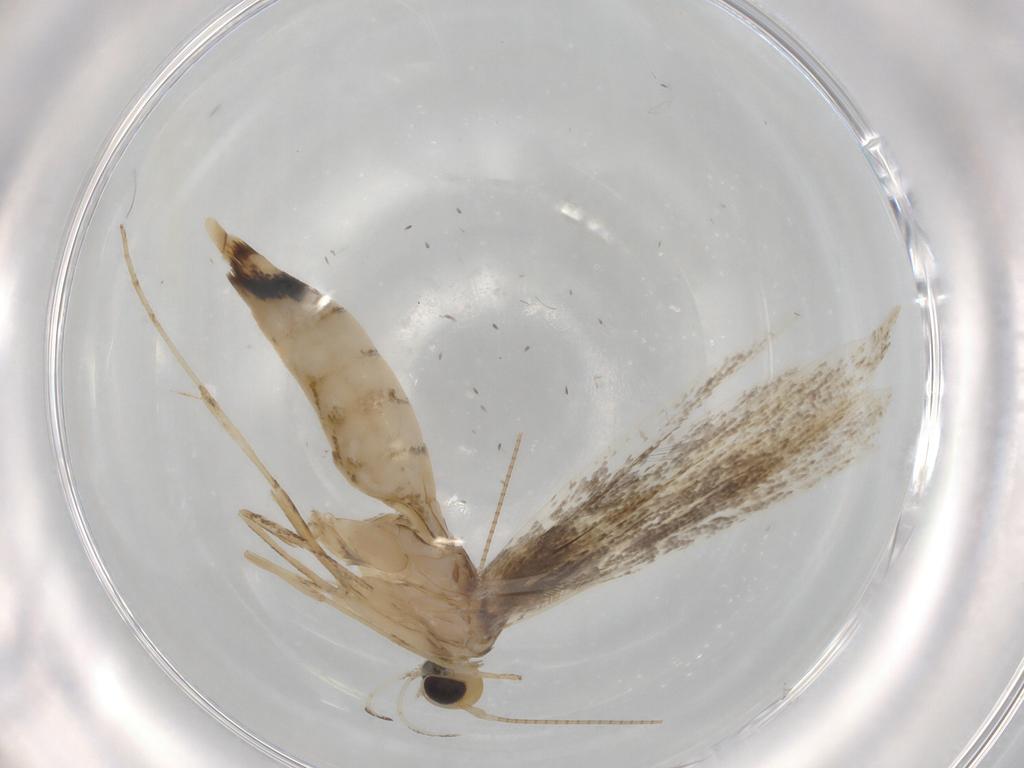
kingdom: Animalia
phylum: Arthropoda
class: Insecta
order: Lepidoptera
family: Gracillariidae
